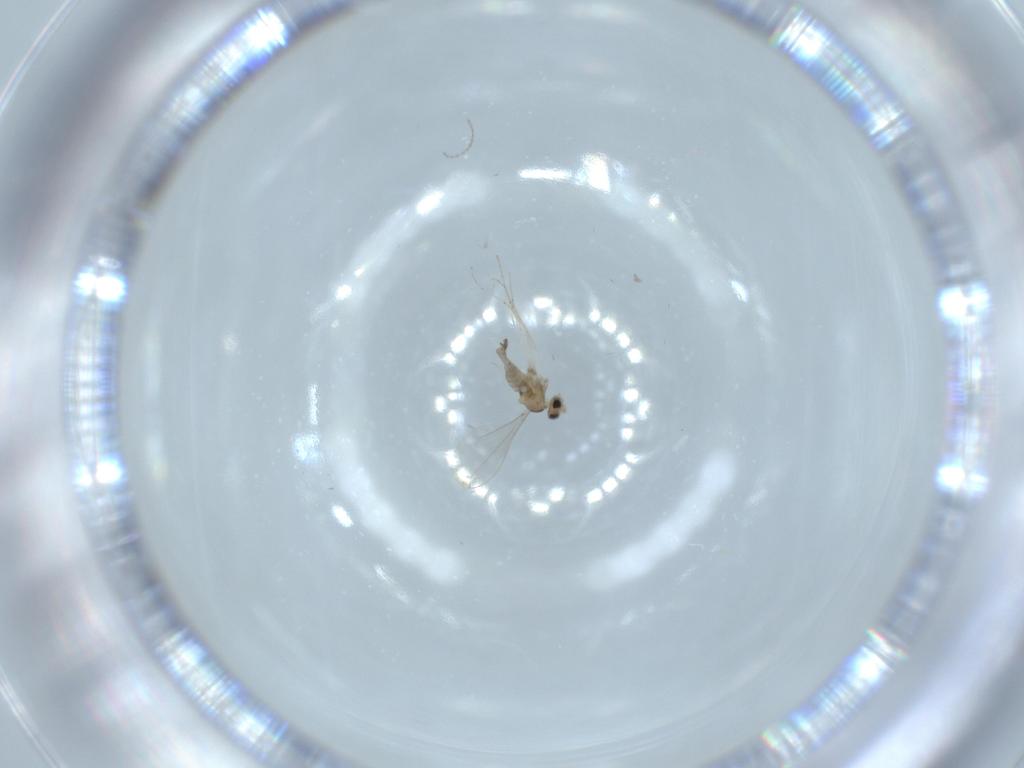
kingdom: Animalia
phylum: Arthropoda
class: Insecta
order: Diptera
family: Cecidomyiidae
